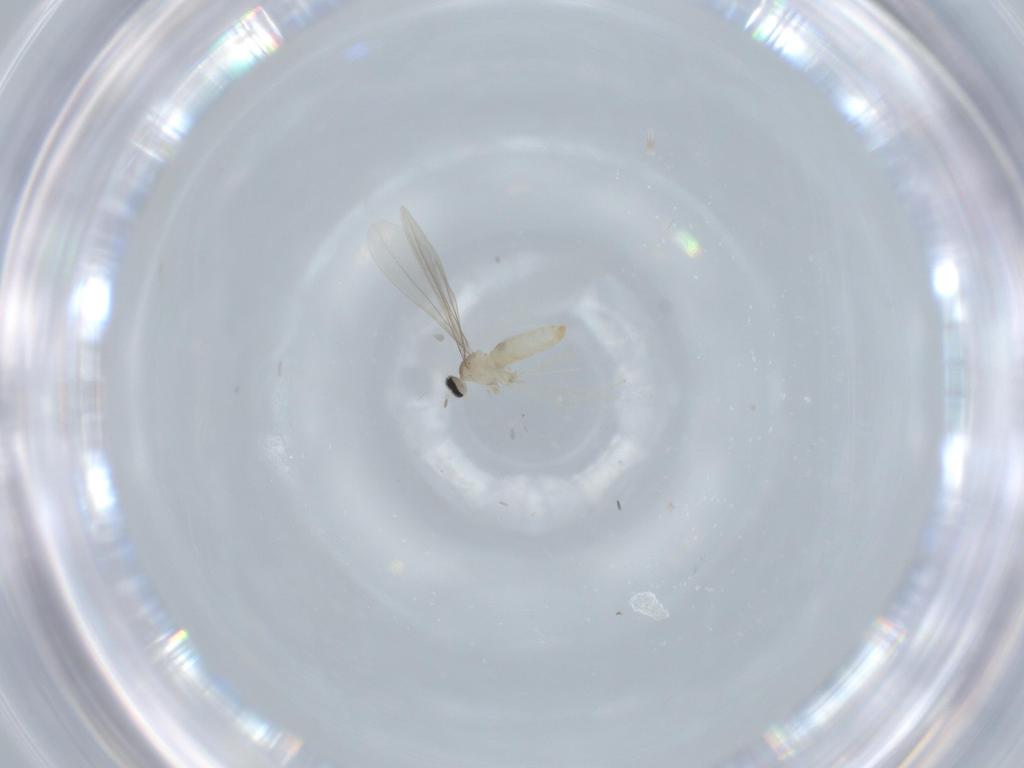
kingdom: Animalia
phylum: Arthropoda
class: Insecta
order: Diptera
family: Cecidomyiidae
